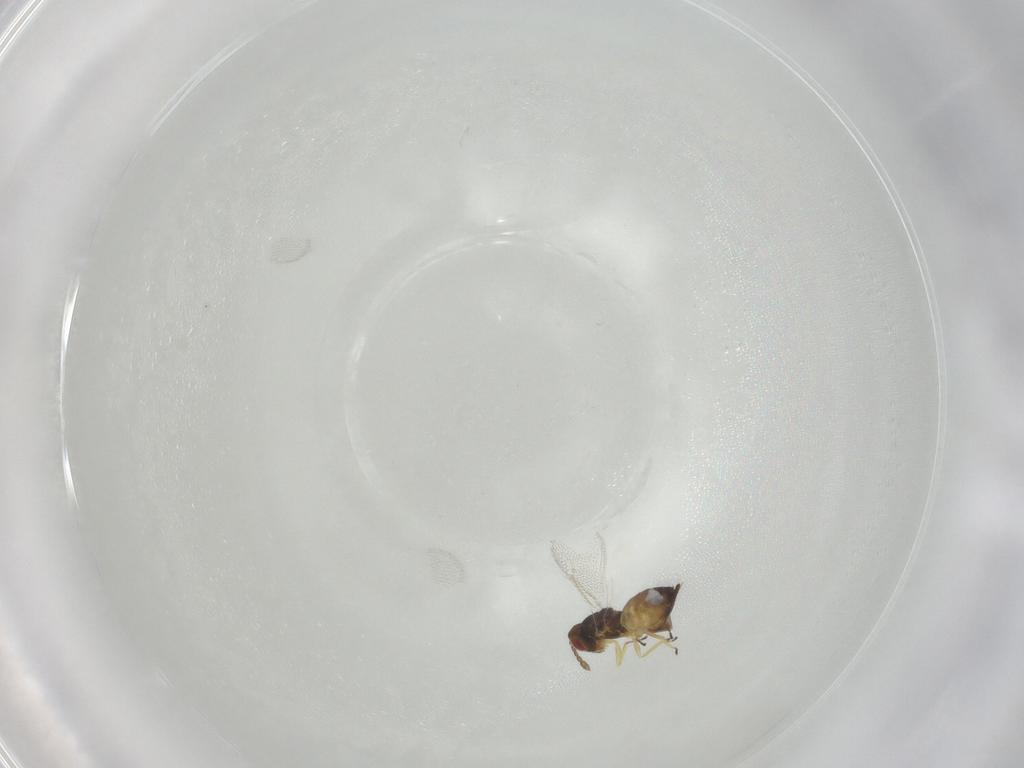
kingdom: Animalia
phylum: Arthropoda
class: Insecta
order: Hymenoptera
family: Eulophidae
